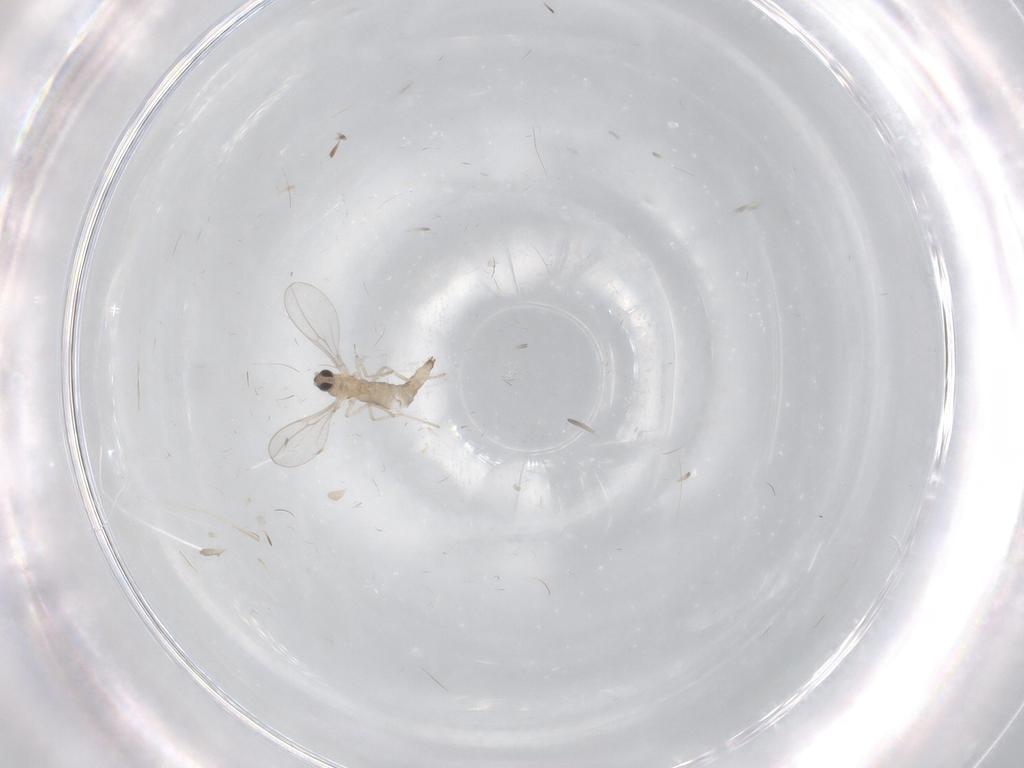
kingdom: Animalia
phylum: Arthropoda
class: Insecta
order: Diptera
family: Cecidomyiidae
